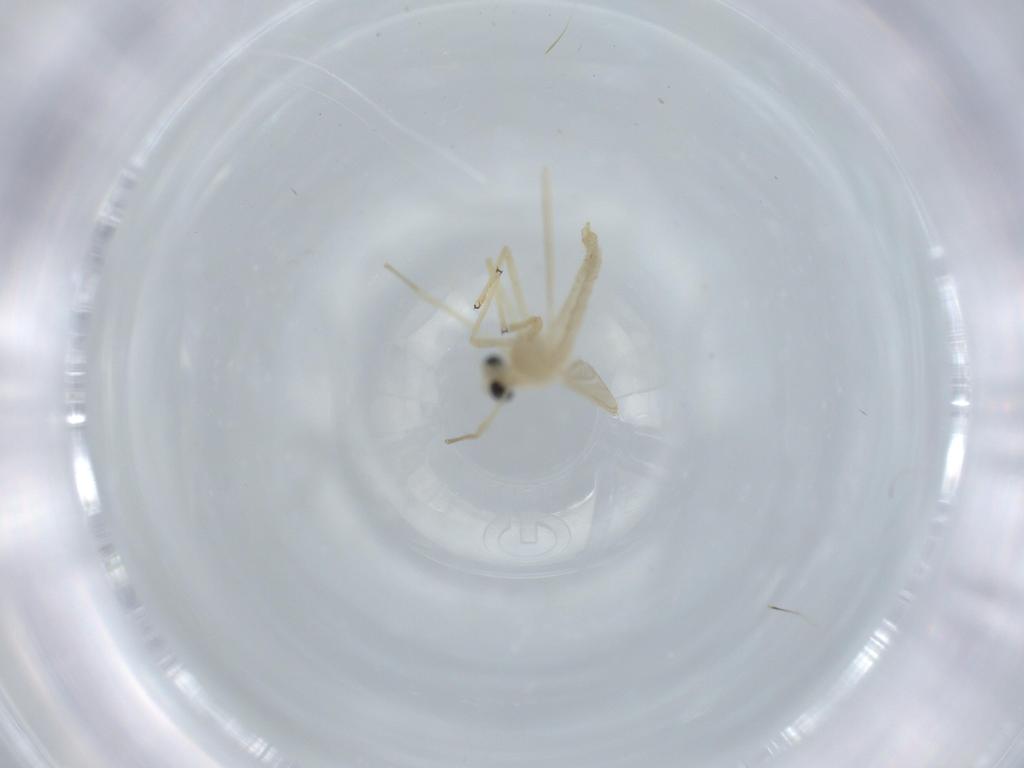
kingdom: Animalia
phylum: Arthropoda
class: Insecta
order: Diptera
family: Chironomidae
